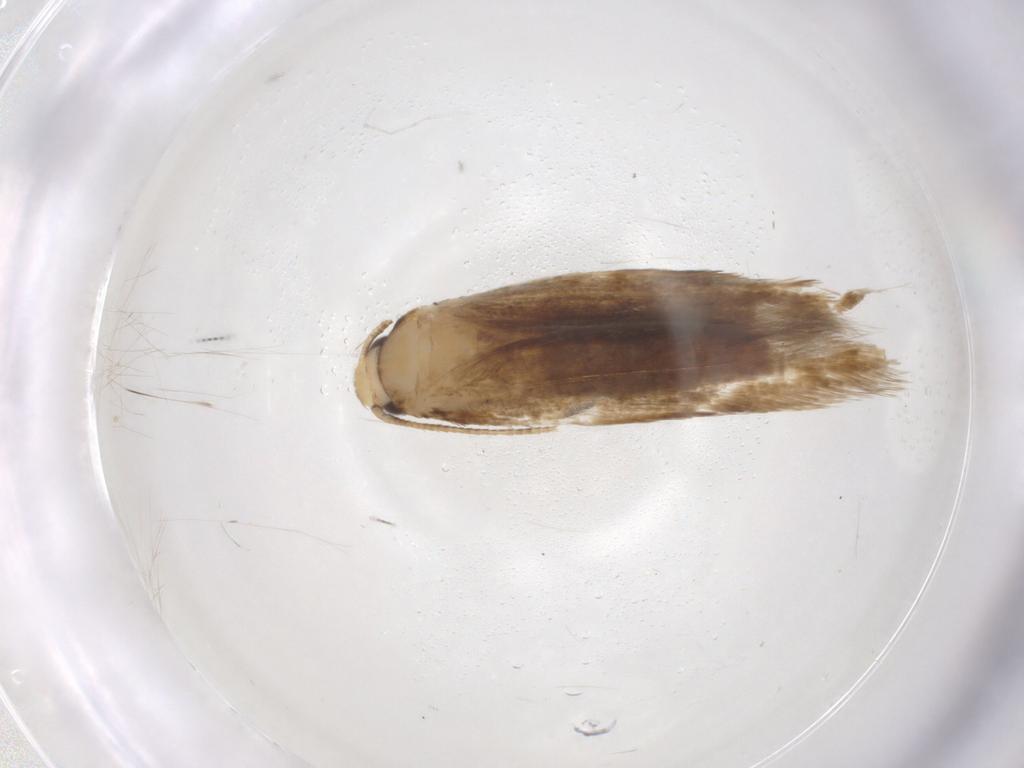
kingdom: Animalia
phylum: Arthropoda
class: Insecta
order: Lepidoptera
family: Tineidae
